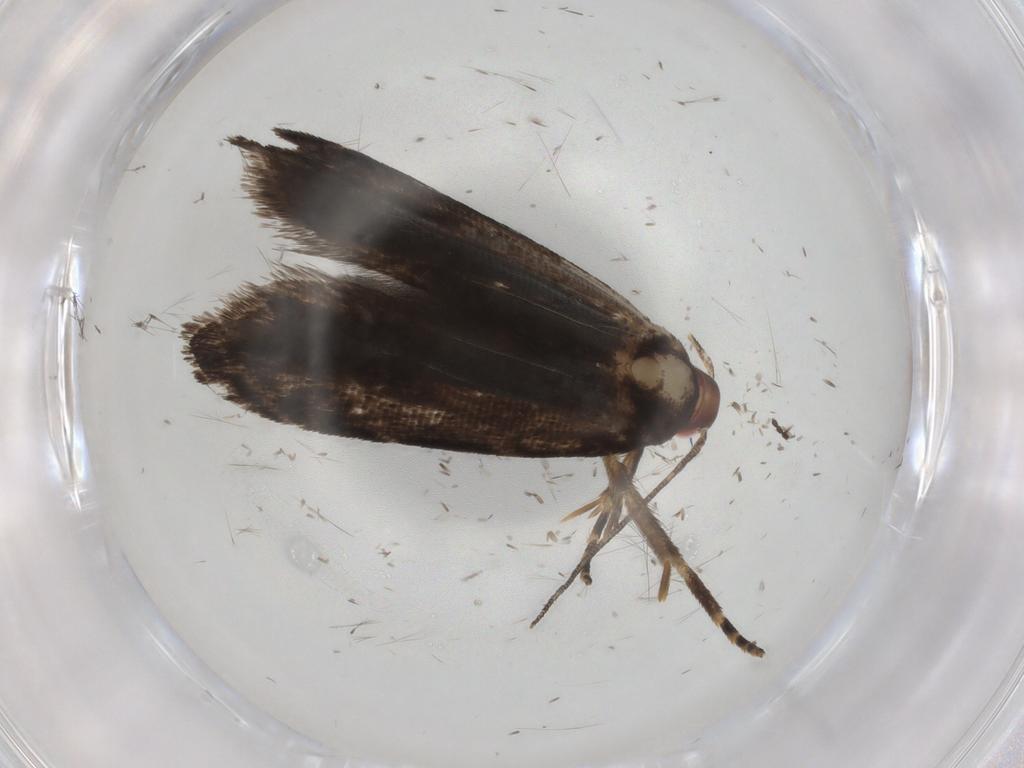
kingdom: Animalia
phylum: Arthropoda
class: Insecta
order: Lepidoptera
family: Gelechiidae
